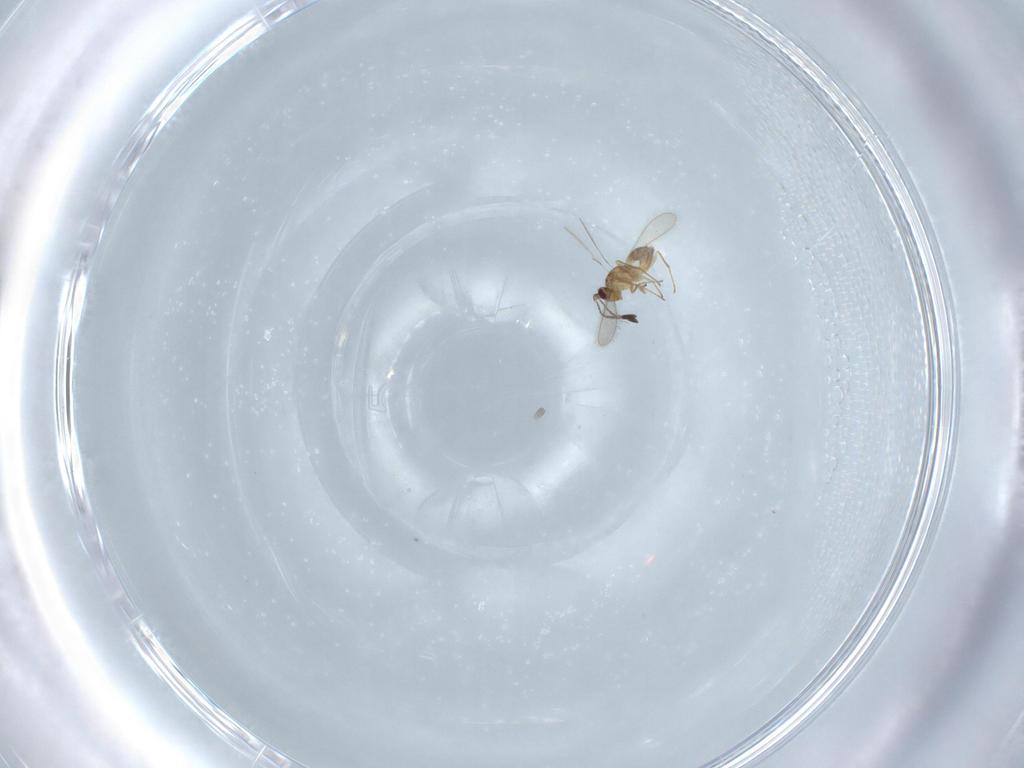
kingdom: Animalia
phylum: Arthropoda
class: Insecta
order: Hymenoptera
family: Mymaridae
